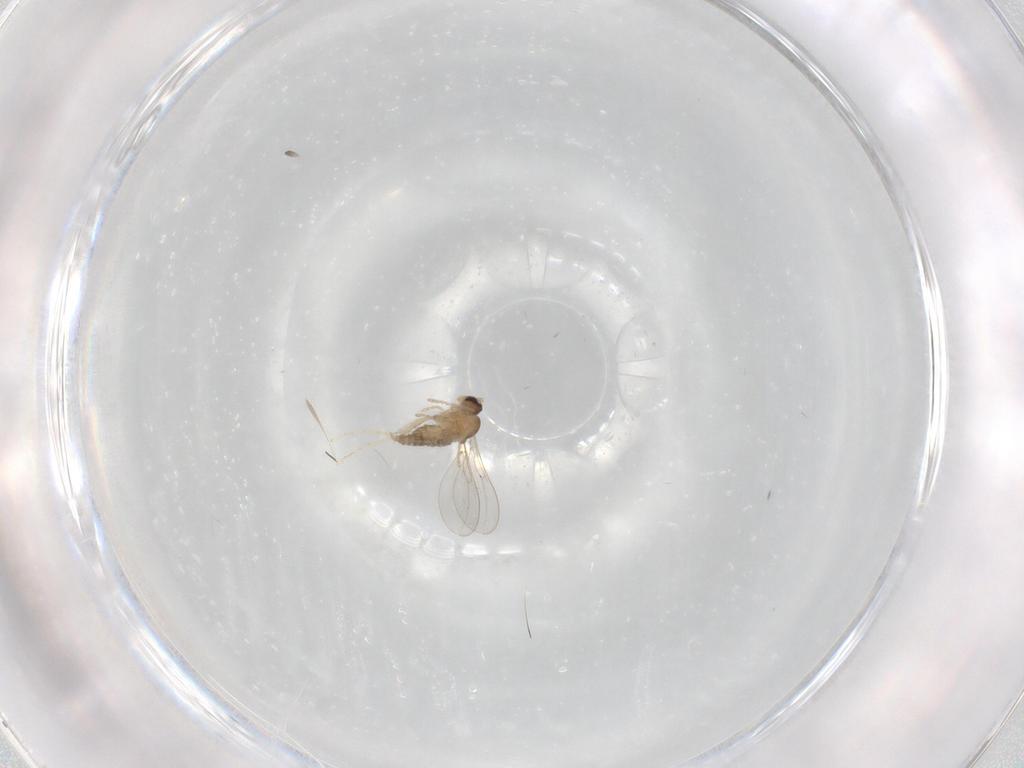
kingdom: Animalia
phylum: Arthropoda
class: Insecta
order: Diptera
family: Cecidomyiidae
